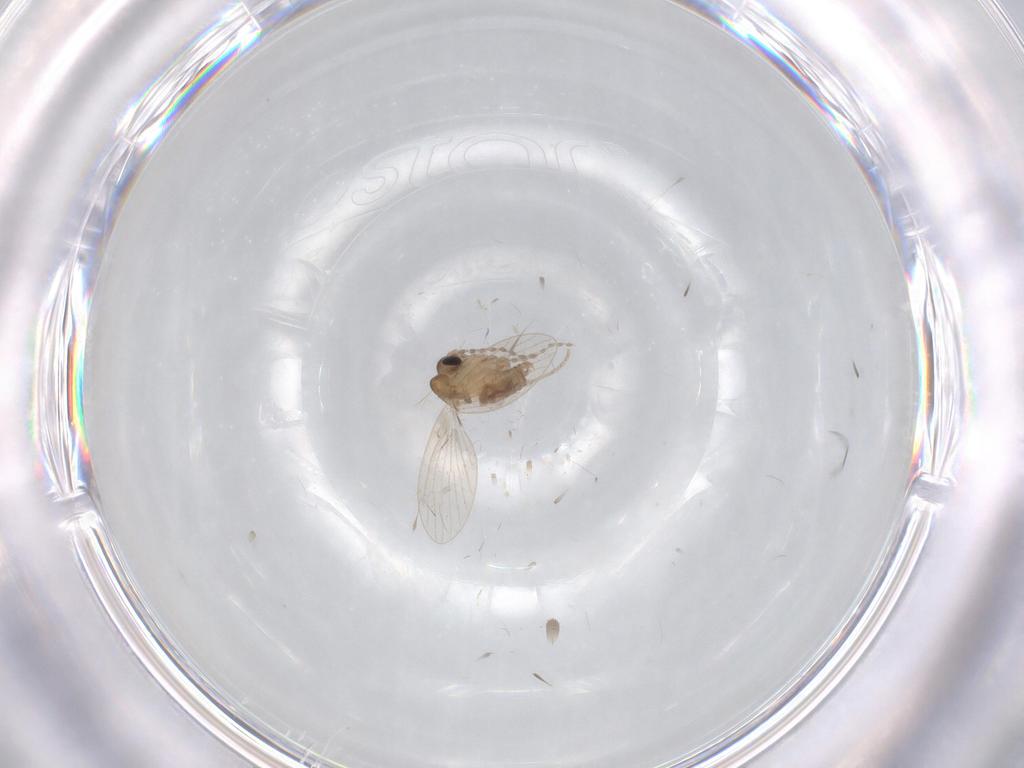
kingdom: Animalia
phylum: Arthropoda
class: Insecta
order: Diptera
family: Psychodidae
